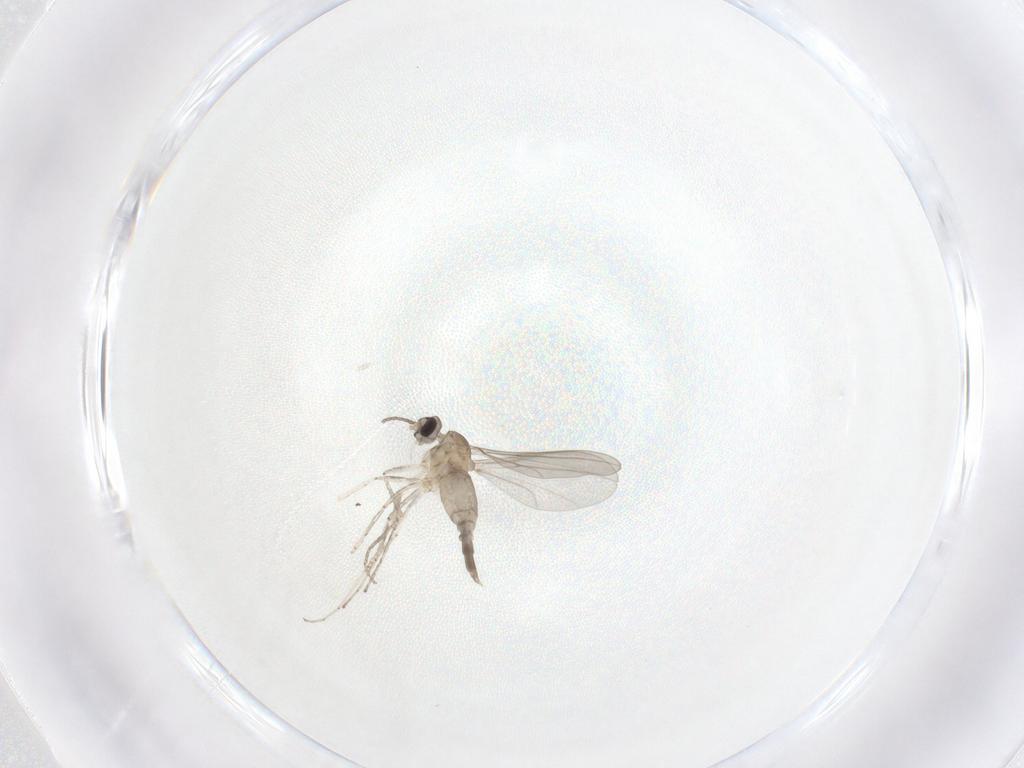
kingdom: Animalia
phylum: Arthropoda
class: Insecta
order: Diptera
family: Cecidomyiidae
